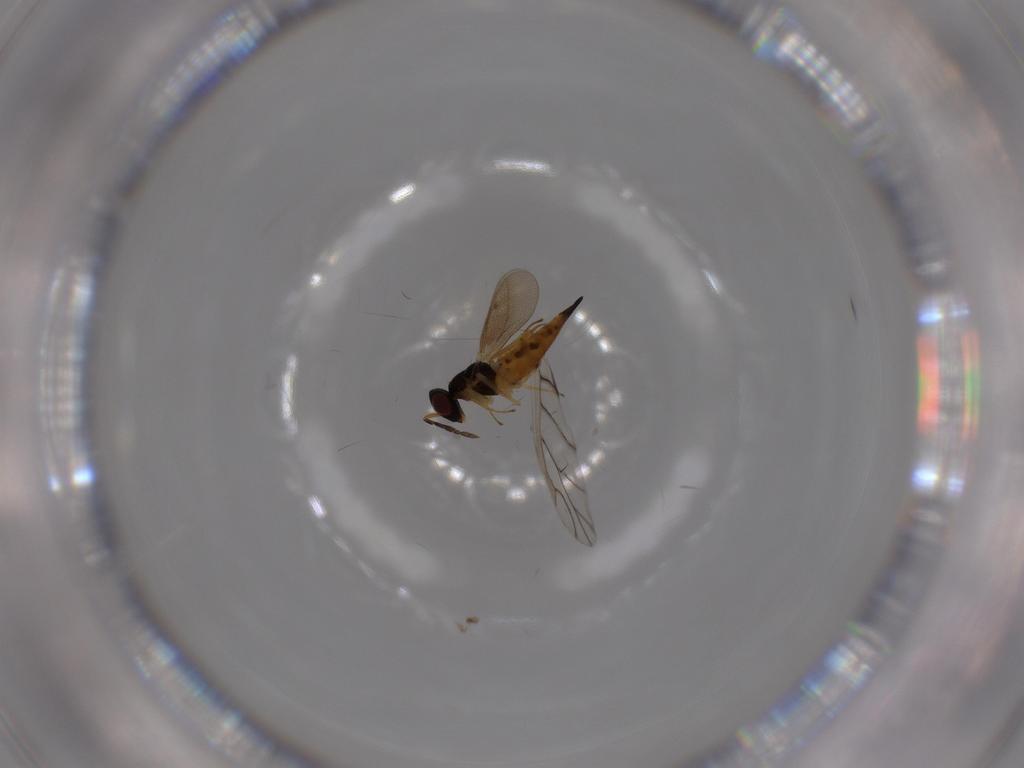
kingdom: Animalia
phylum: Arthropoda
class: Insecta
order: Hymenoptera
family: Eulophidae
